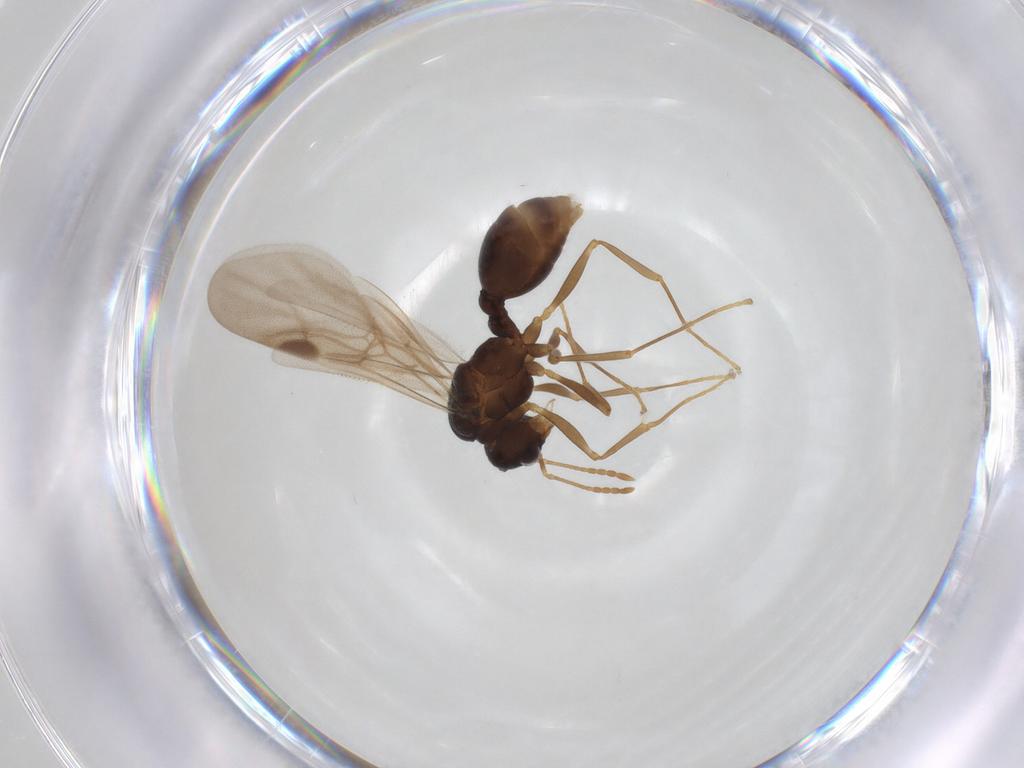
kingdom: Animalia
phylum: Arthropoda
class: Insecta
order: Hymenoptera
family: Formicidae
